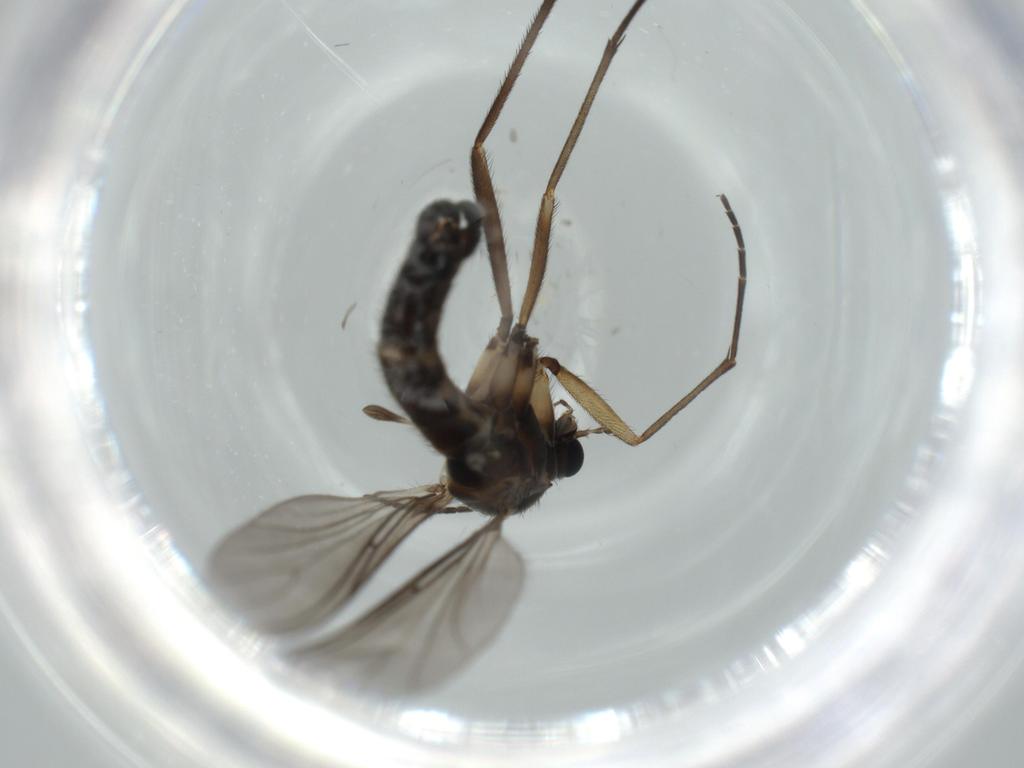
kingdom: Animalia
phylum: Arthropoda
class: Insecta
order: Diptera
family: Sciaridae
